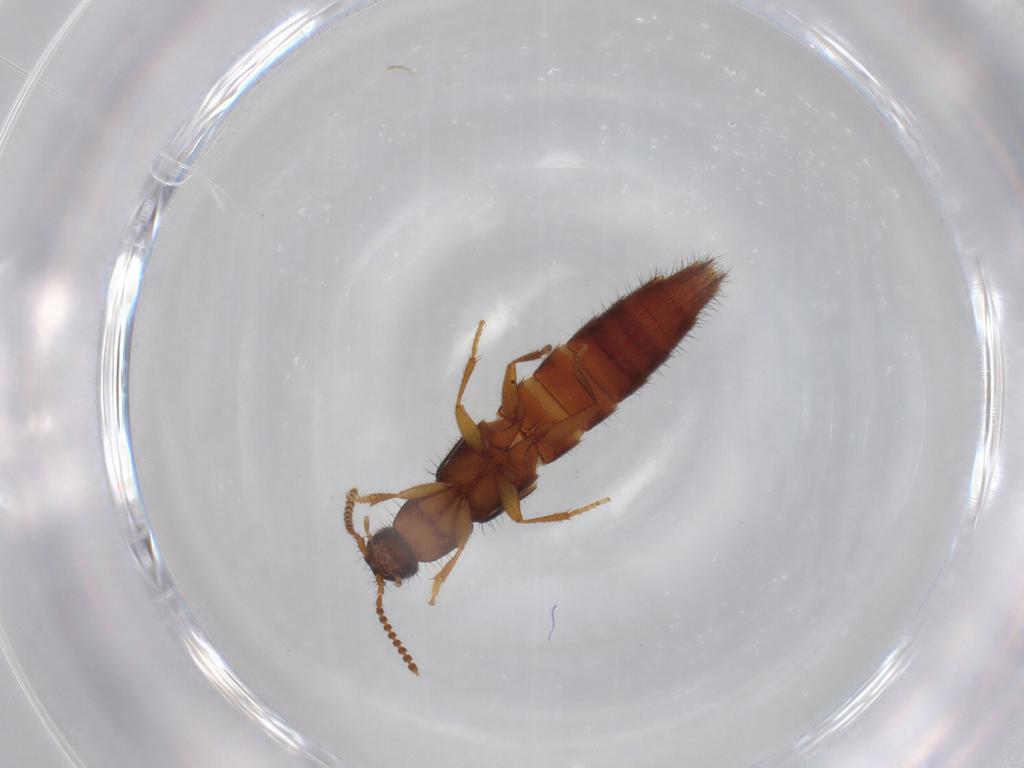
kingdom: Animalia
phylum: Arthropoda
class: Insecta
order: Coleoptera
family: Staphylinidae
